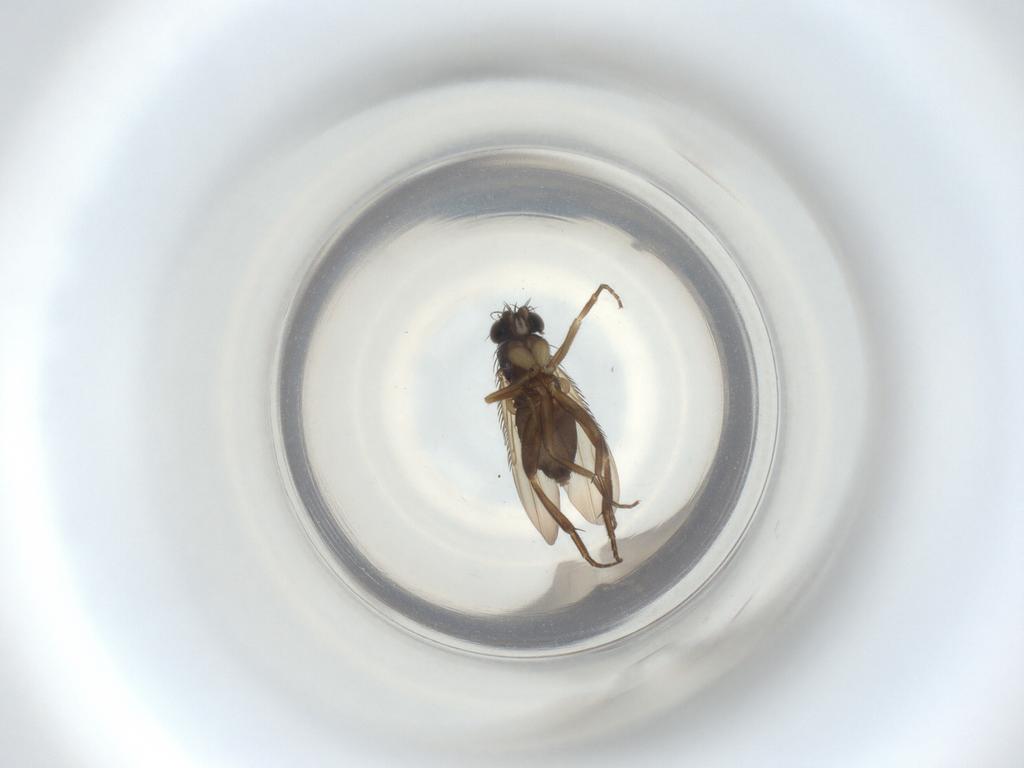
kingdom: Animalia
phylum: Arthropoda
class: Insecta
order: Diptera
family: Phoridae
